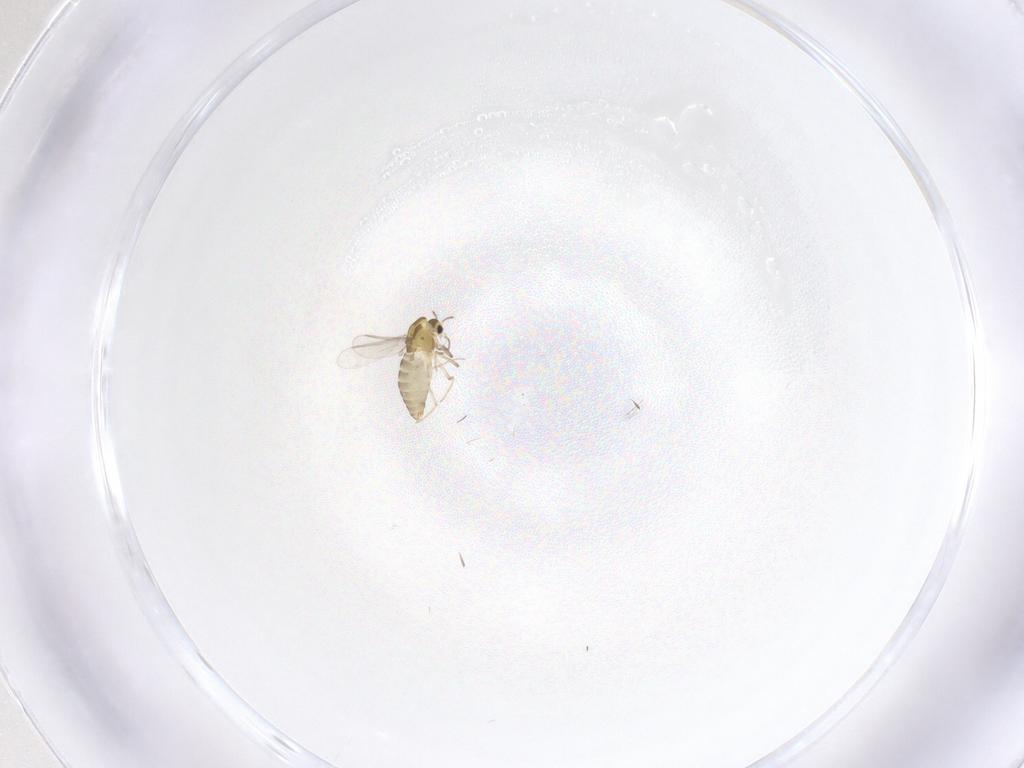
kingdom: Animalia
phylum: Arthropoda
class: Insecta
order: Diptera
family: Chironomidae
